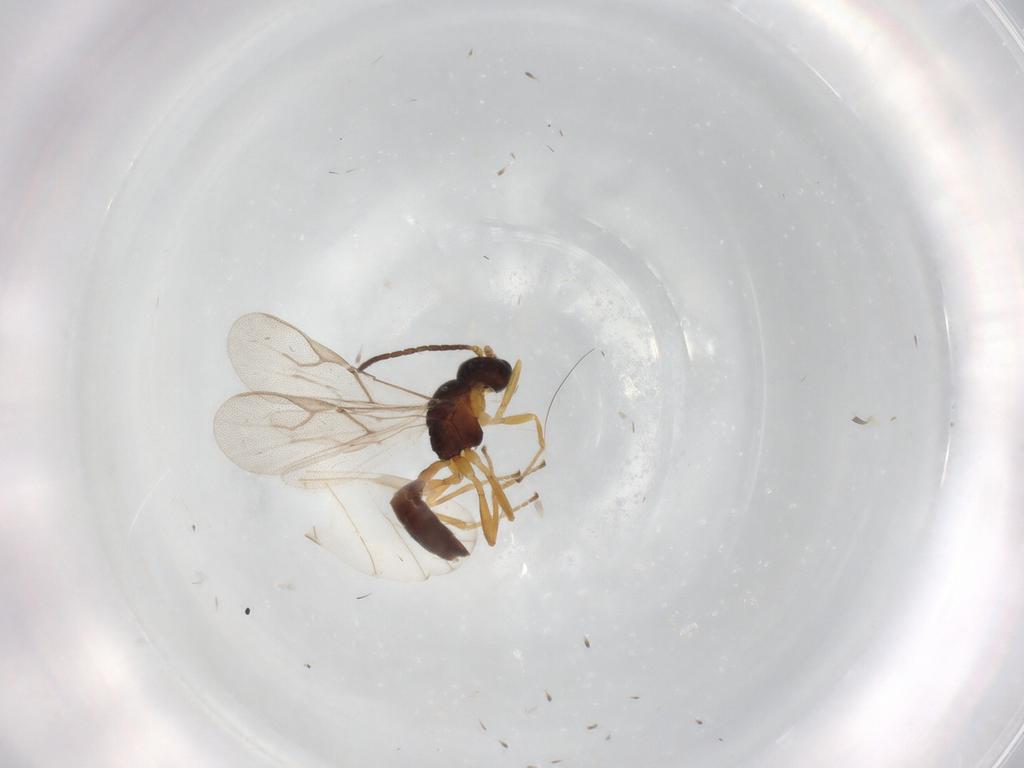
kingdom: Animalia
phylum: Arthropoda
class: Insecta
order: Hymenoptera
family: Braconidae
